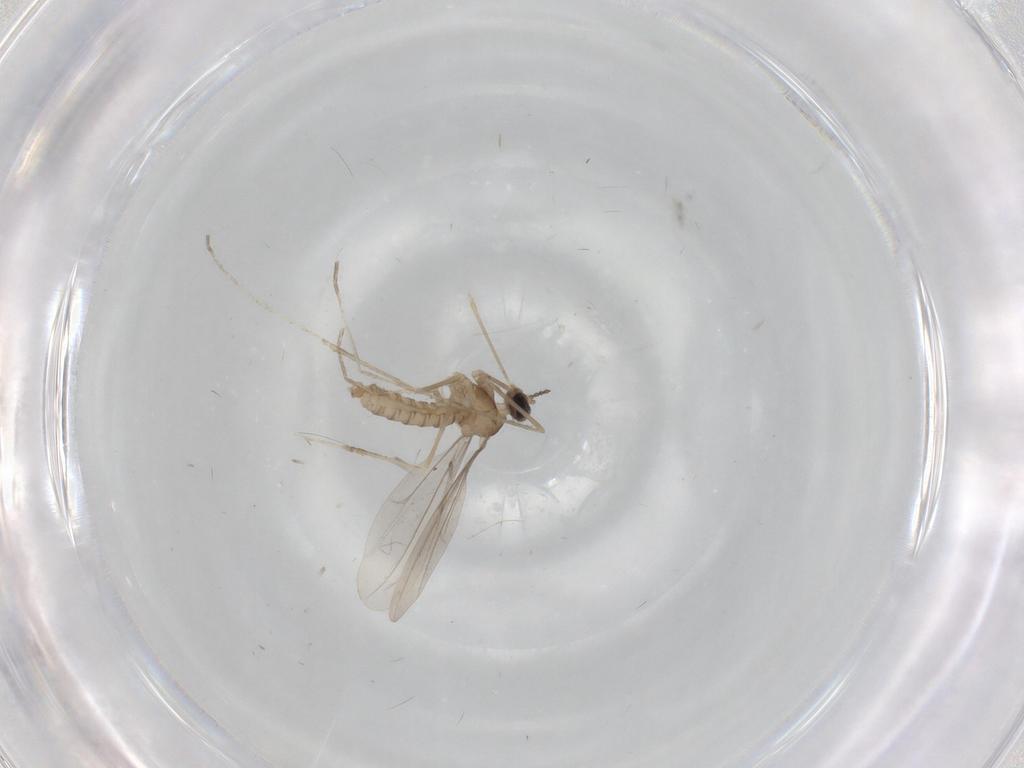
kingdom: Animalia
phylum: Arthropoda
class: Insecta
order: Diptera
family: Cecidomyiidae
